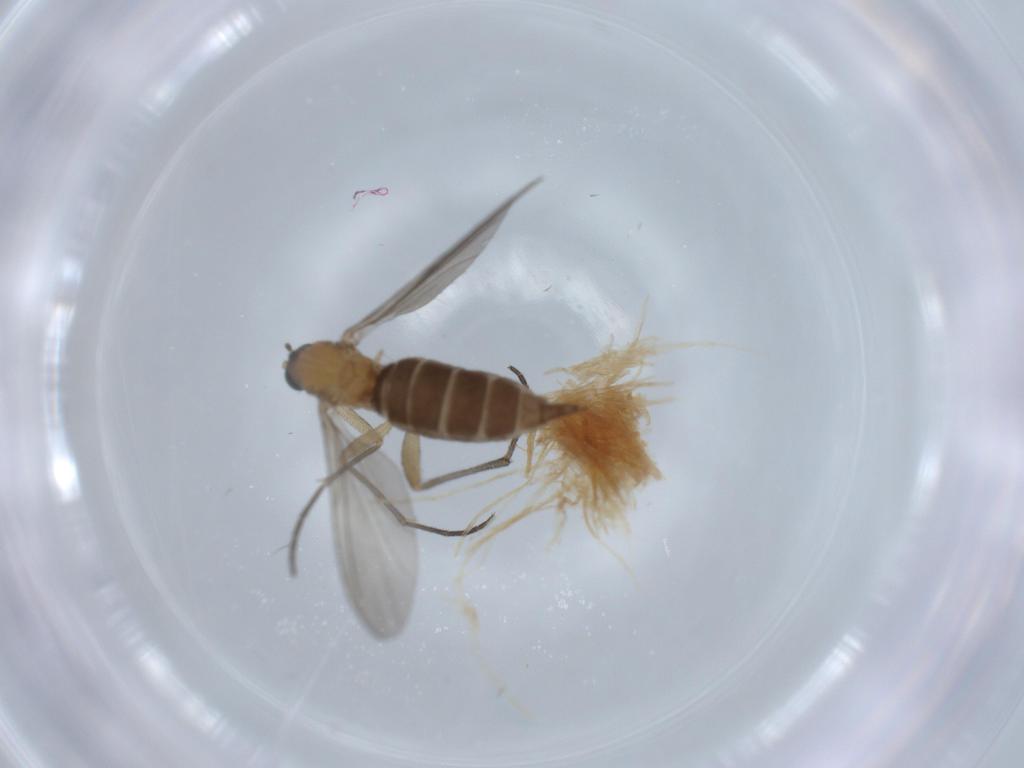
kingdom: Animalia
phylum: Arthropoda
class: Insecta
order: Diptera
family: Sciaridae
